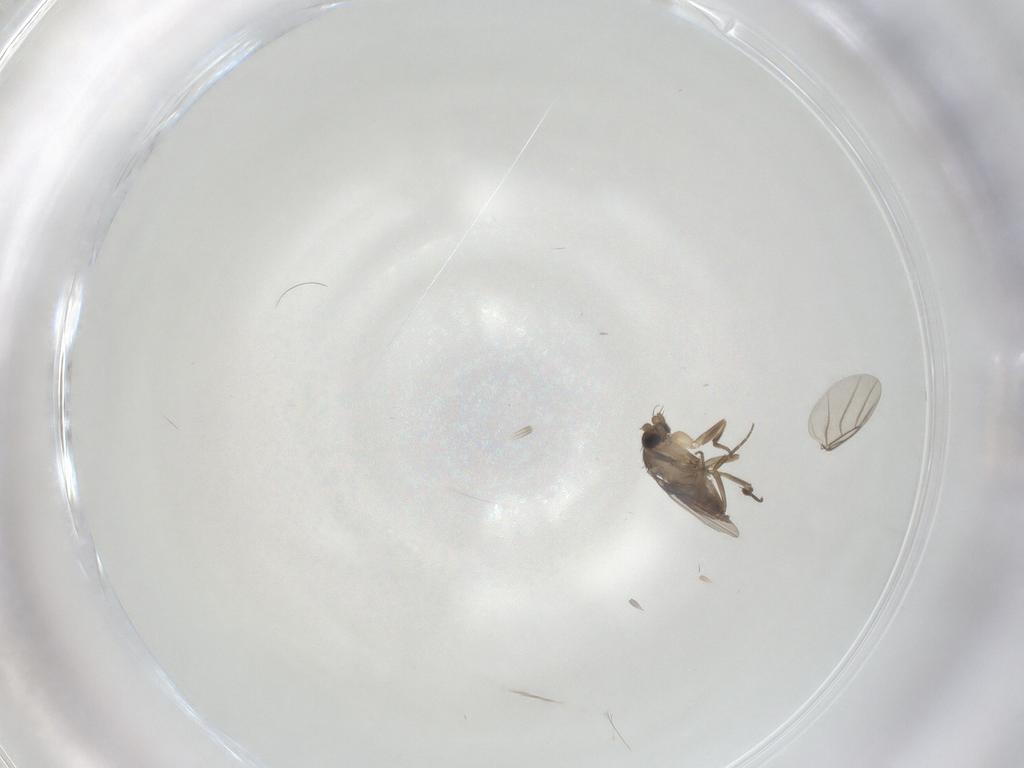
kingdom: Animalia
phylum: Arthropoda
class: Insecta
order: Diptera
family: Phoridae
